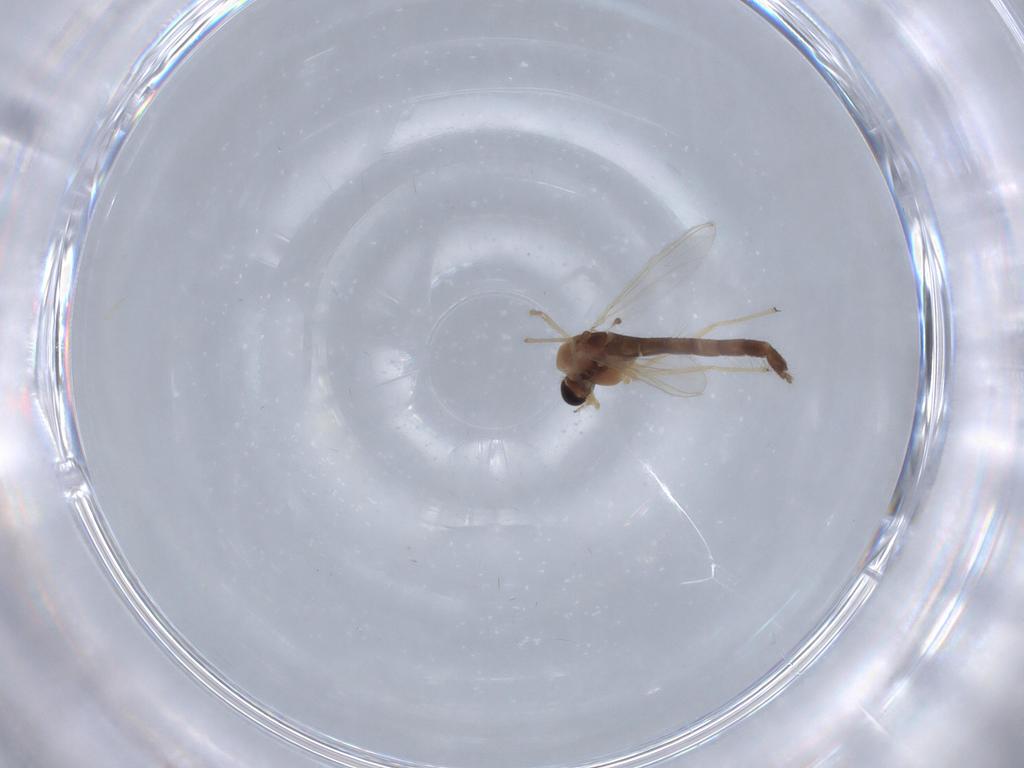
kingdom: Animalia
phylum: Arthropoda
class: Insecta
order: Diptera
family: Chironomidae
